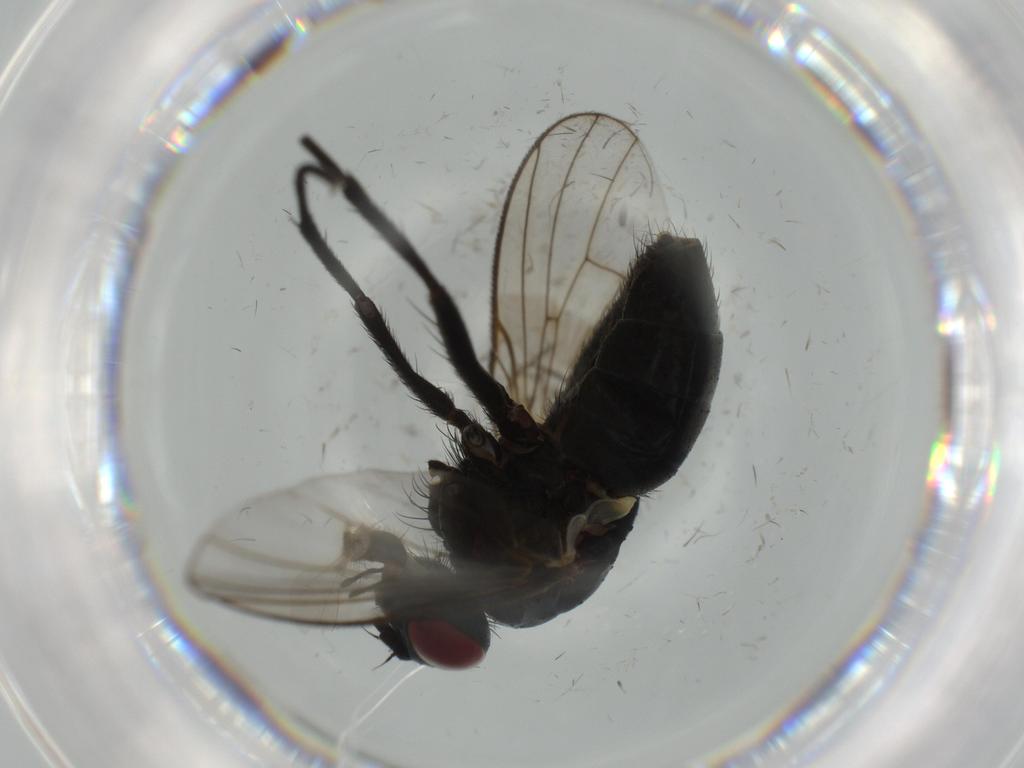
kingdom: Animalia
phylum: Arthropoda
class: Insecta
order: Diptera
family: Muscidae
